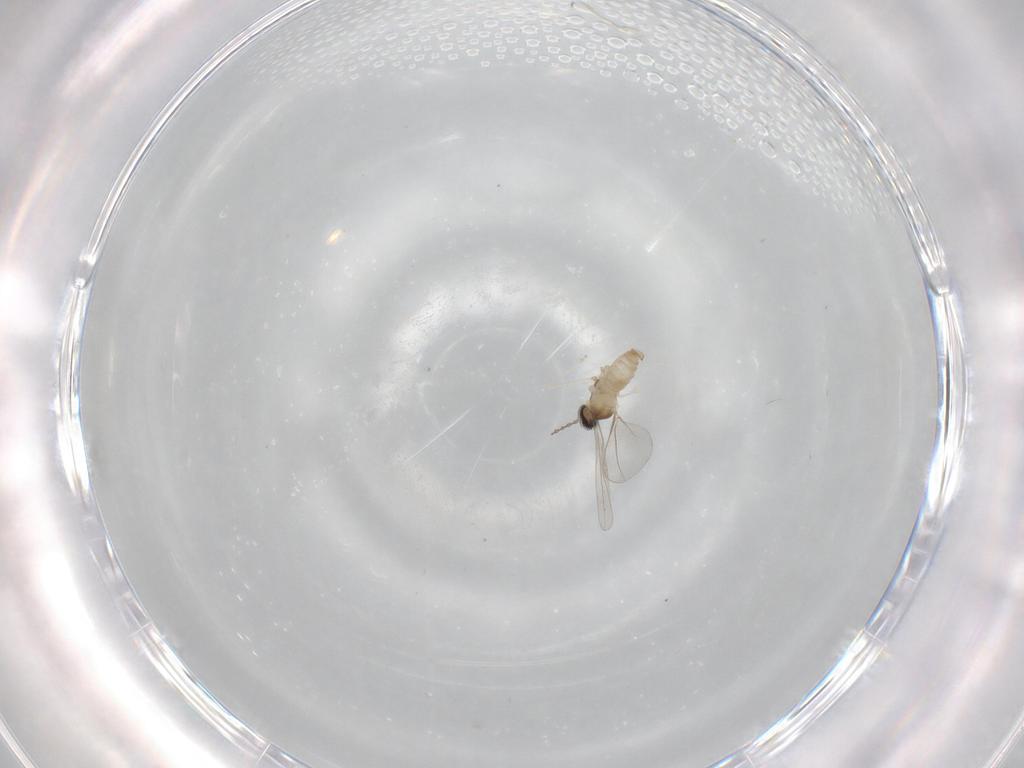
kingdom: Animalia
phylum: Arthropoda
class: Insecta
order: Diptera
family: Cecidomyiidae
